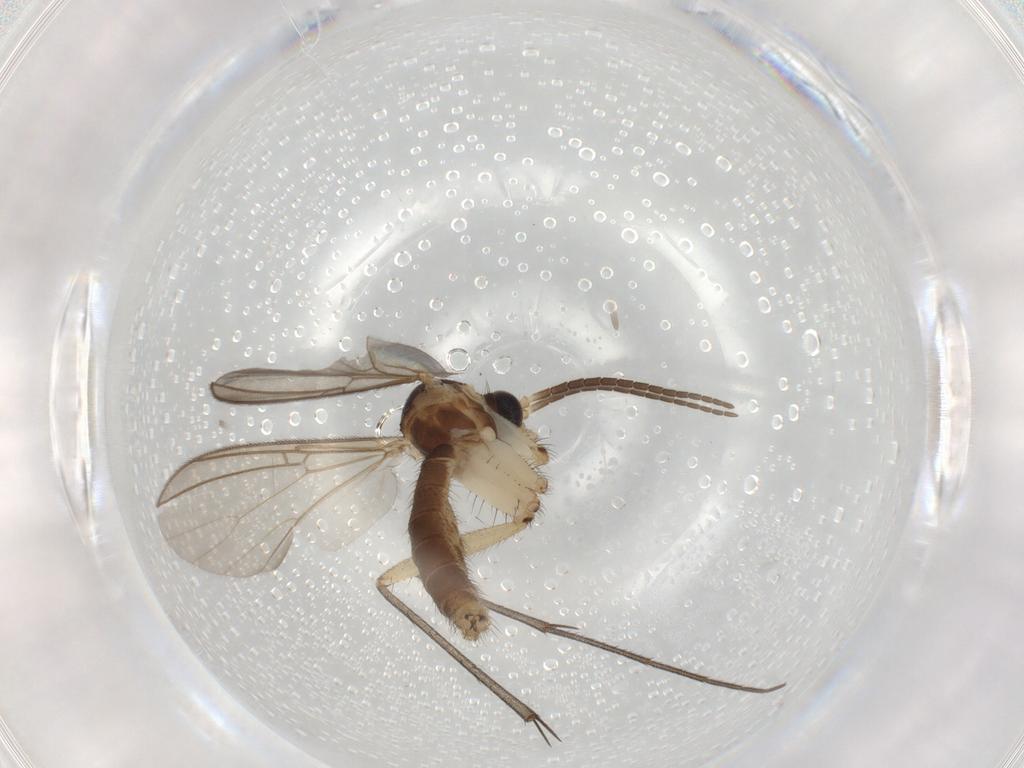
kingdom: Animalia
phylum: Arthropoda
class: Insecta
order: Diptera
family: Mycetophilidae
